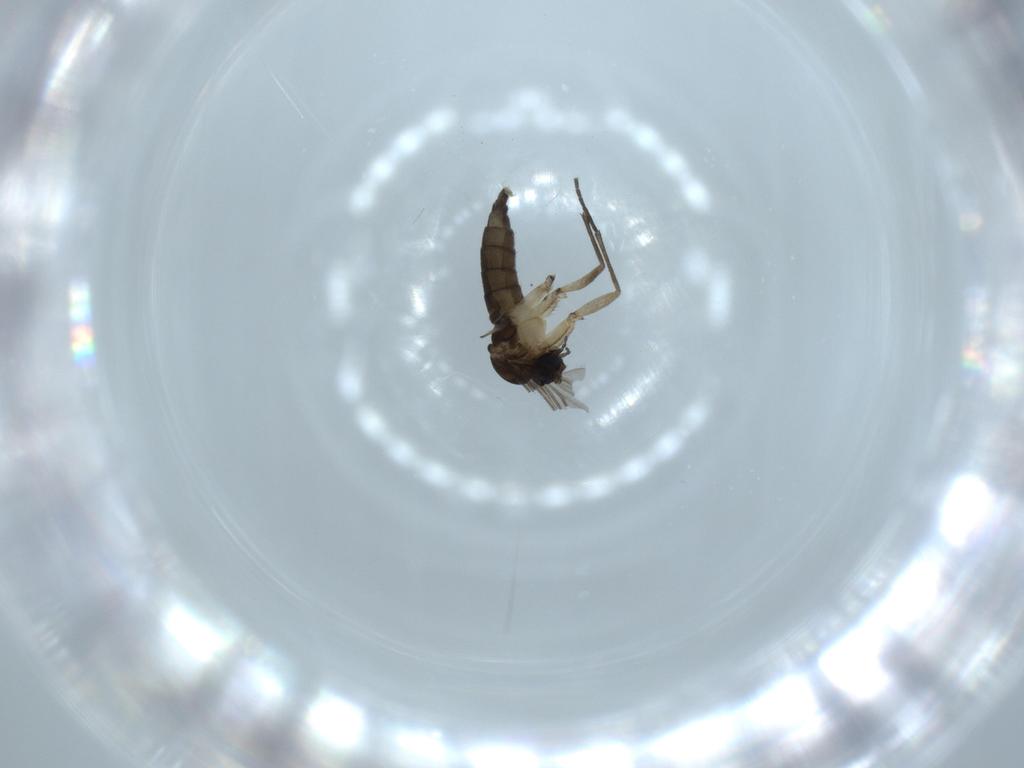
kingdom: Animalia
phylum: Arthropoda
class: Insecta
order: Diptera
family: Sciaridae
